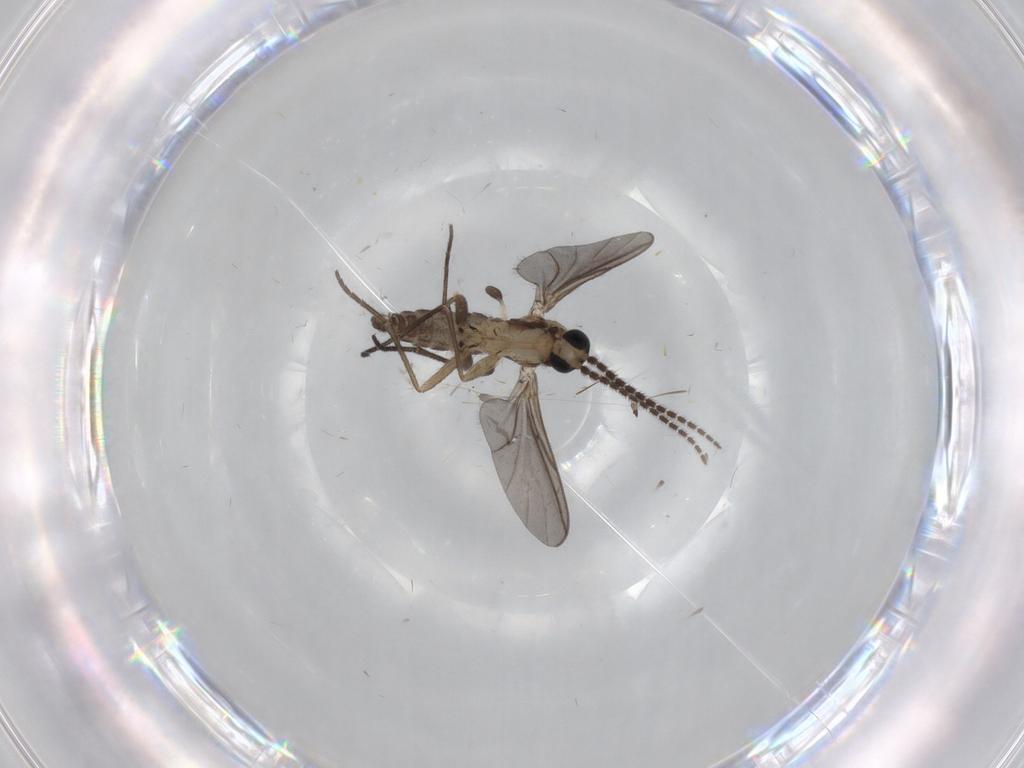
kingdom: Animalia
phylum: Arthropoda
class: Insecta
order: Diptera
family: Sciaridae
